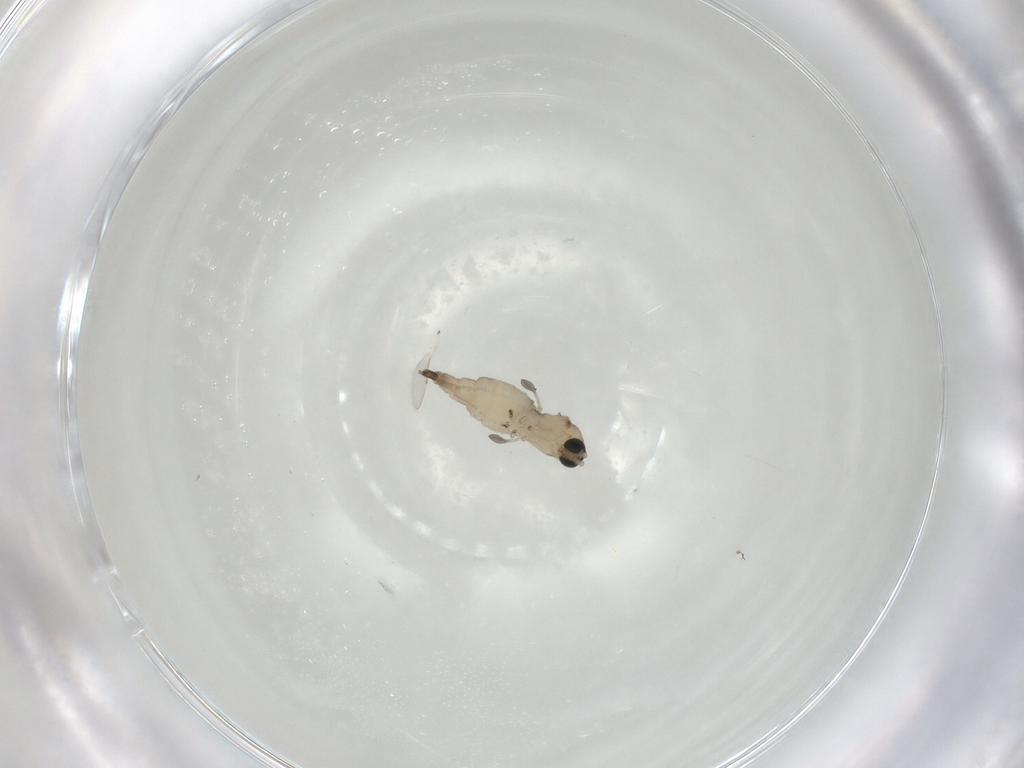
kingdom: Animalia
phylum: Arthropoda
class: Insecta
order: Diptera
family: Sciaridae
